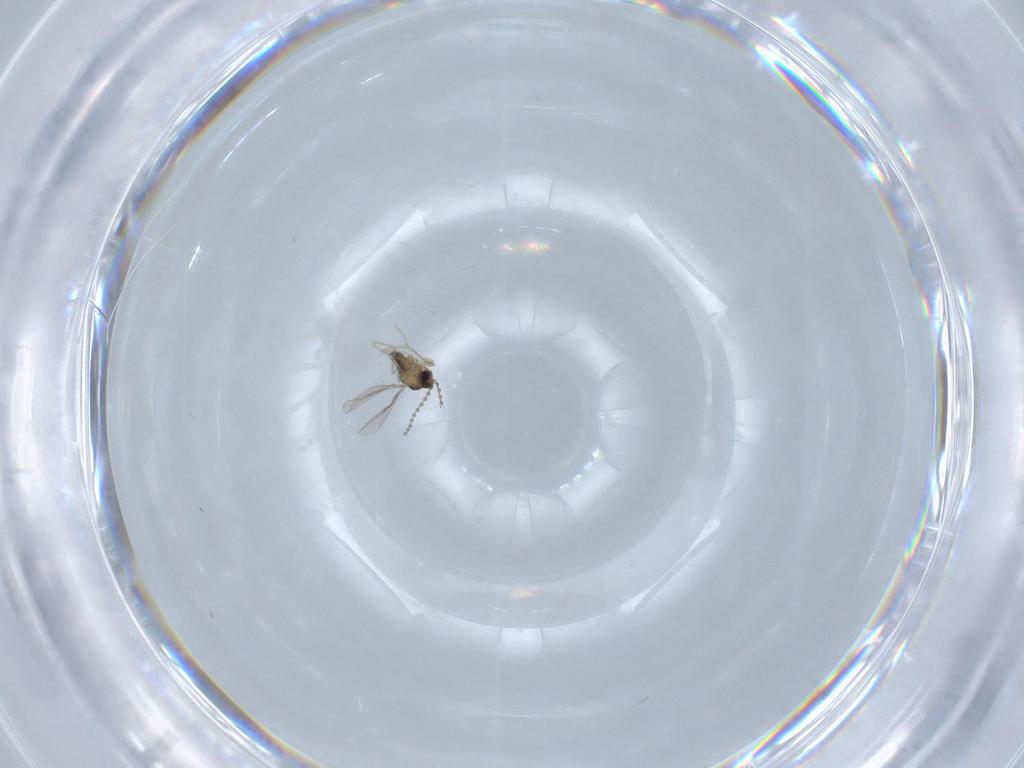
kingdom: Animalia
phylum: Arthropoda
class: Insecta
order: Diptera
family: Cecidomyiidae
